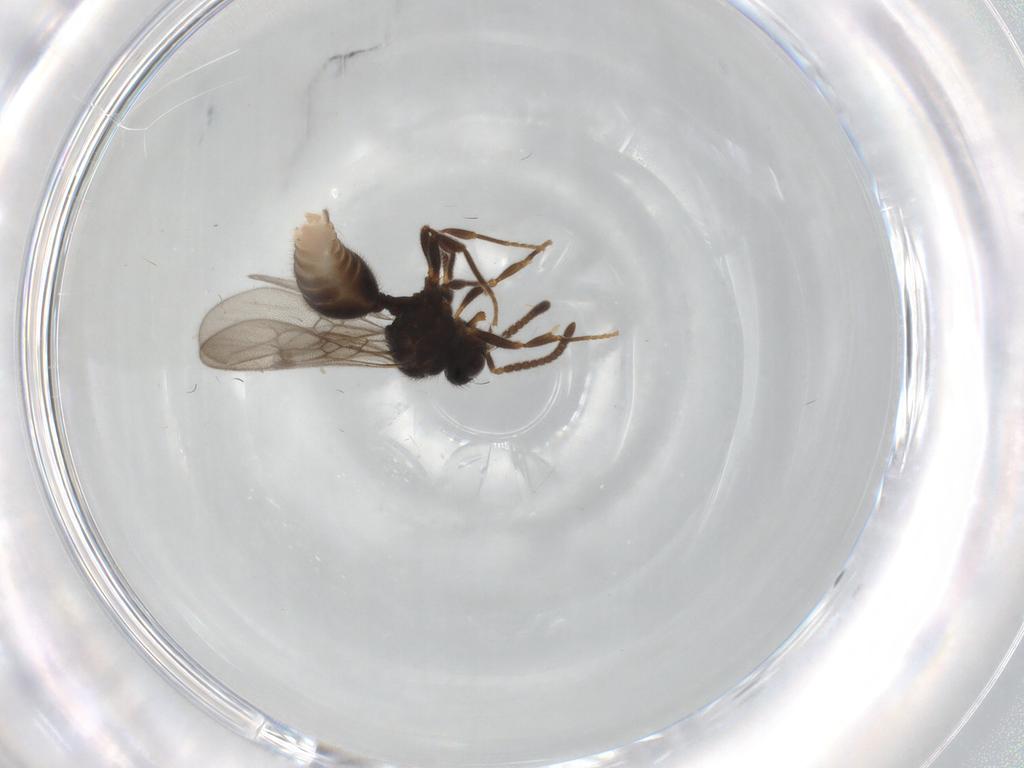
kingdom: Animalia
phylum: Arthropoda
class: Insecta
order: Hymenoptera
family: Formicidae
